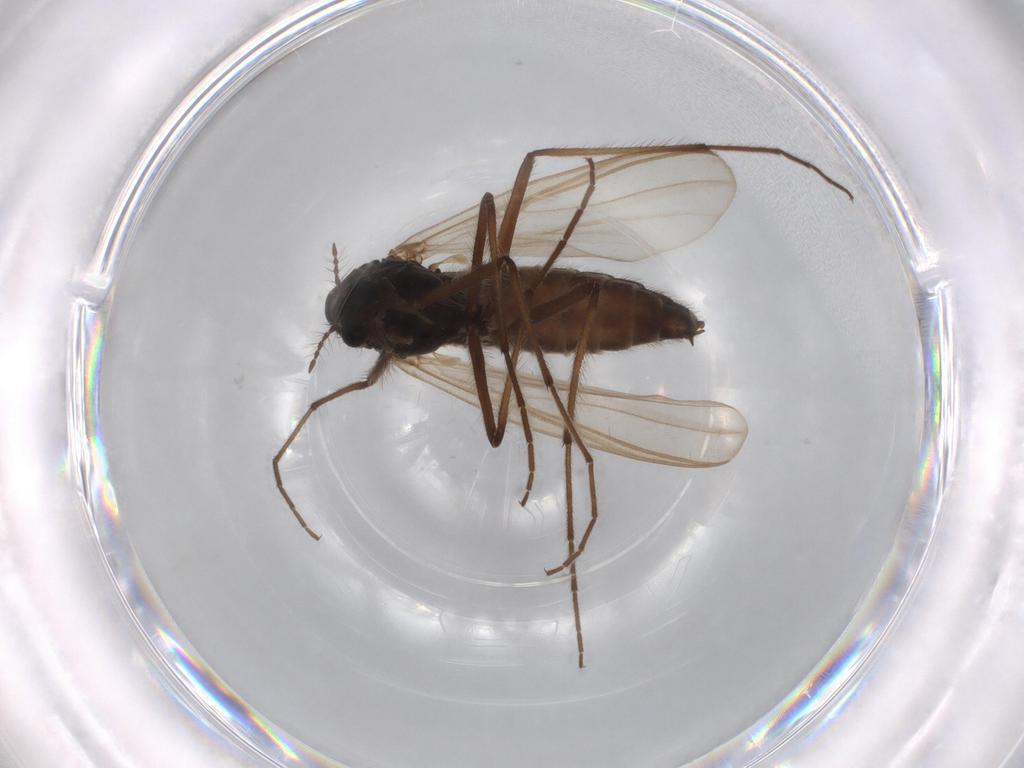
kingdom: Animalia
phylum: Arthropoda
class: Insecta
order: Diptera
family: Chironomidae
